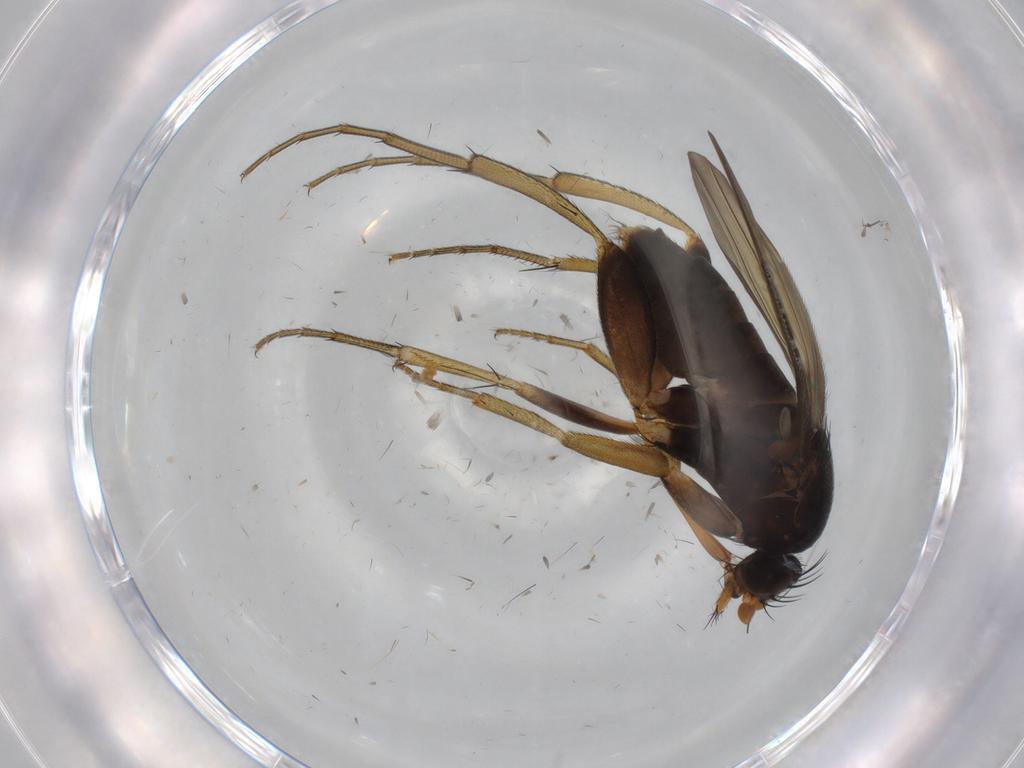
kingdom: Animalia
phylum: Arthropoda
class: Insecta
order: Diptera
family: Phoridae
